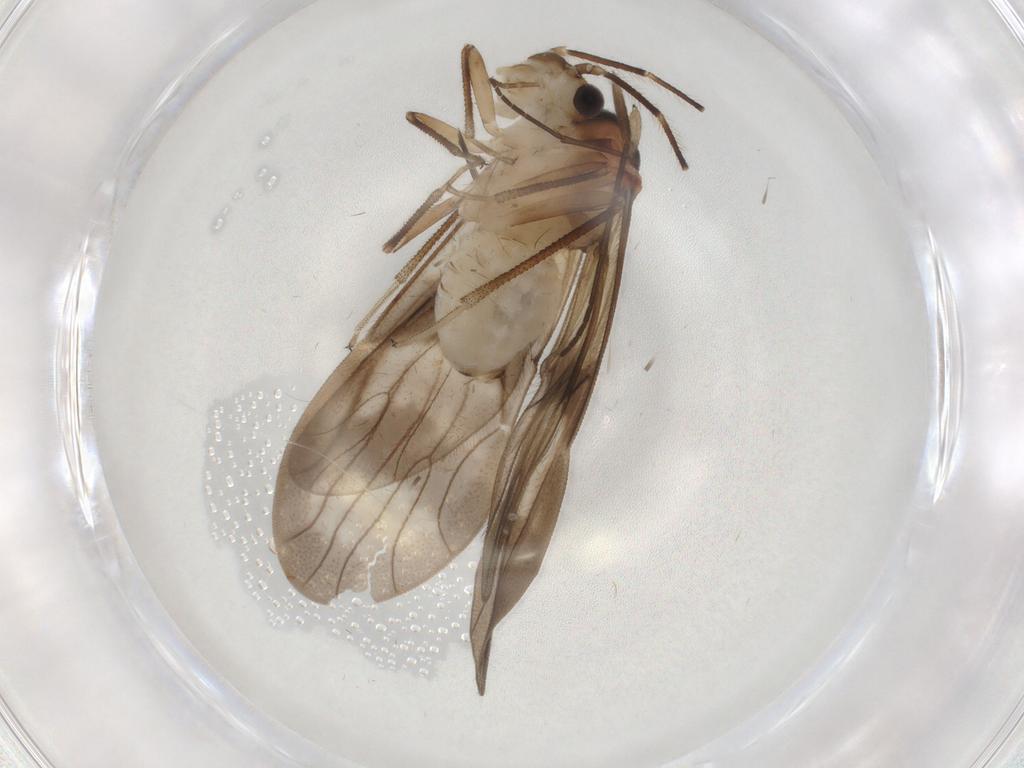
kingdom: Animalia
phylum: Arthropoda
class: Insecta
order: Psocodea
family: Amphipsocidae
